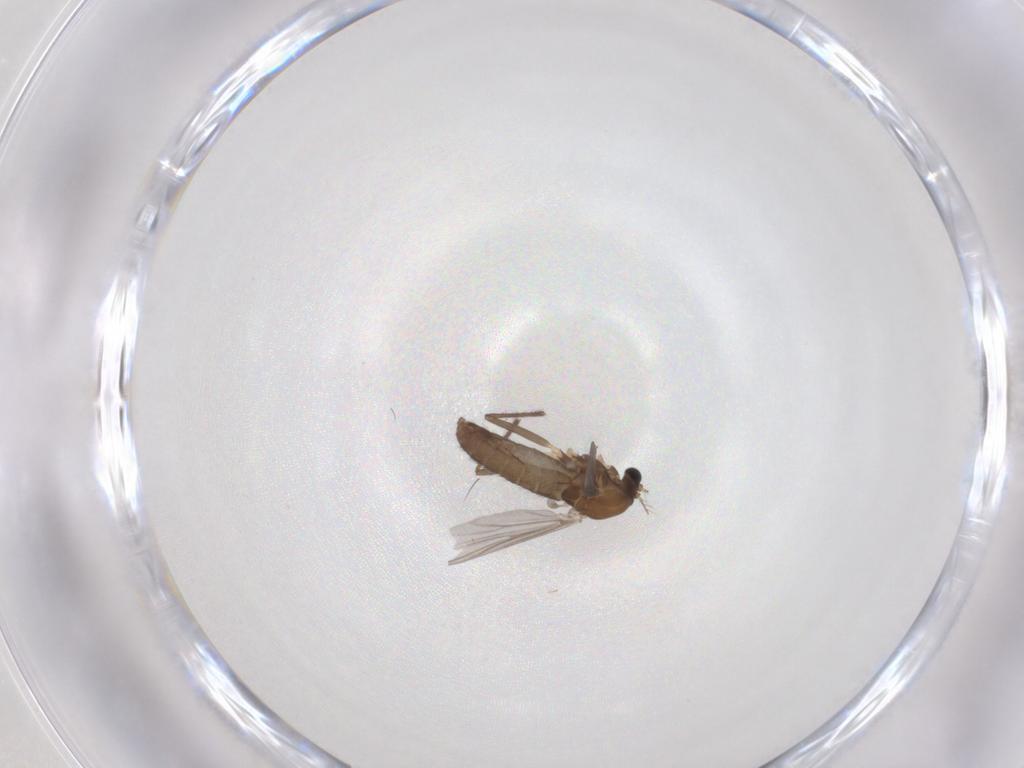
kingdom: Animalia
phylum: Arthropoda
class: Insecta
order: Diptera
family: Chironomidae
